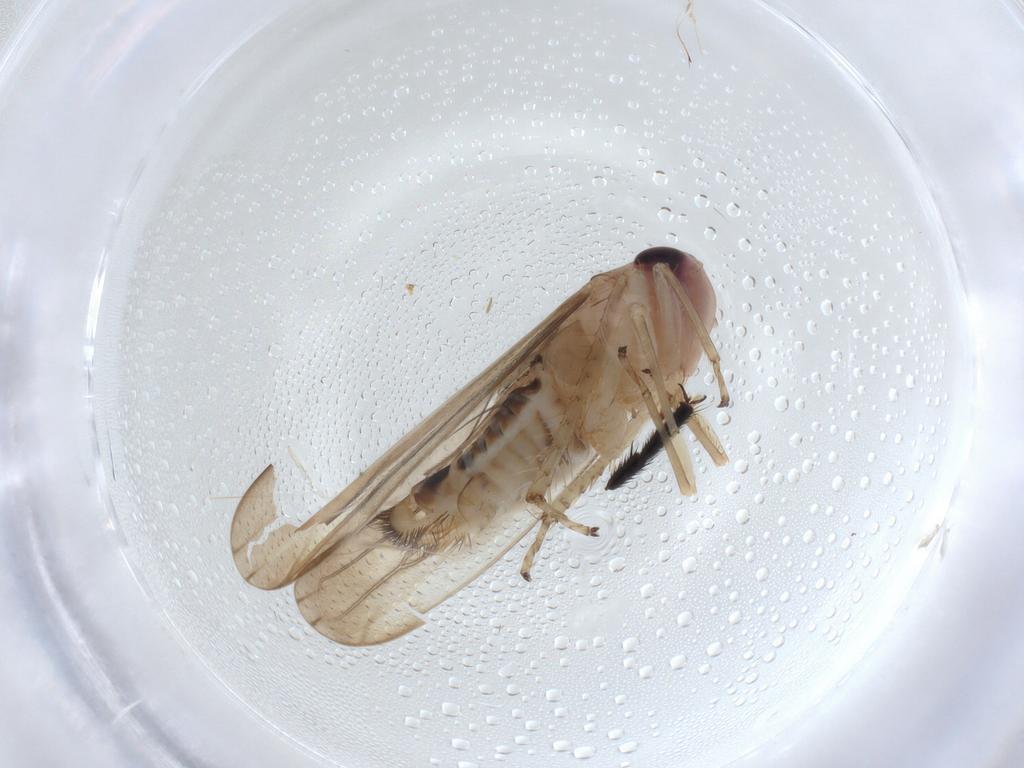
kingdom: Animalia
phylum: Arthropoda
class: Insecta
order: Hemiptera
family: Cicadellidae
